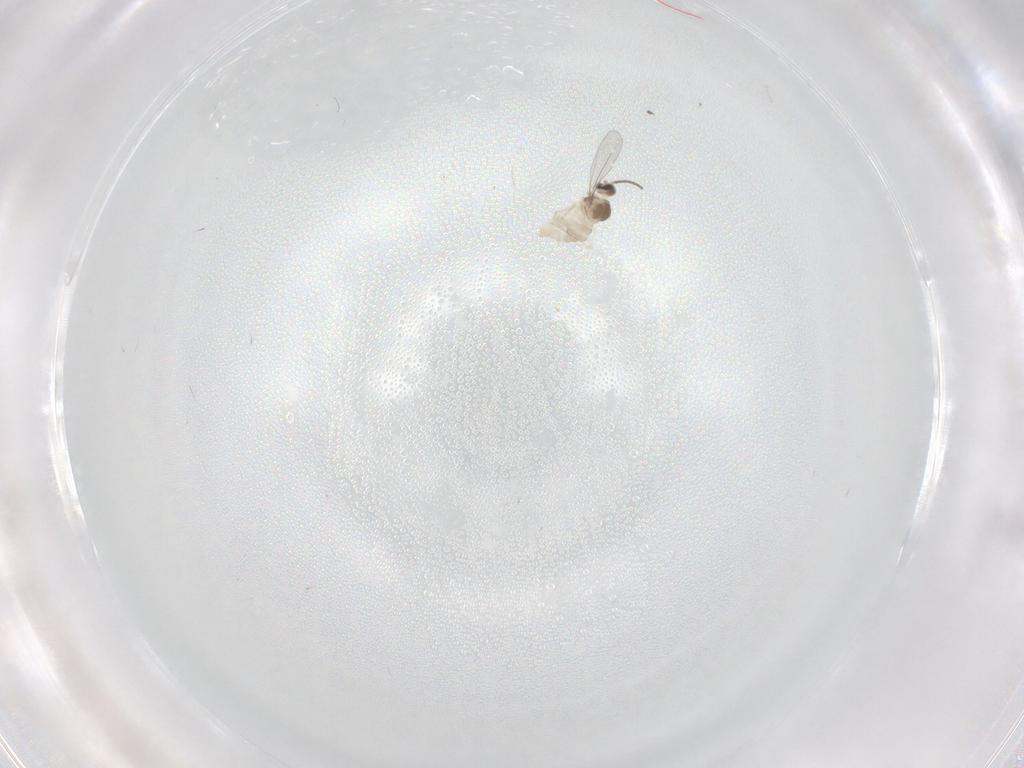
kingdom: Animalia
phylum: Arthropoda
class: Insecta
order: Diptera
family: Cecidomyiidae
